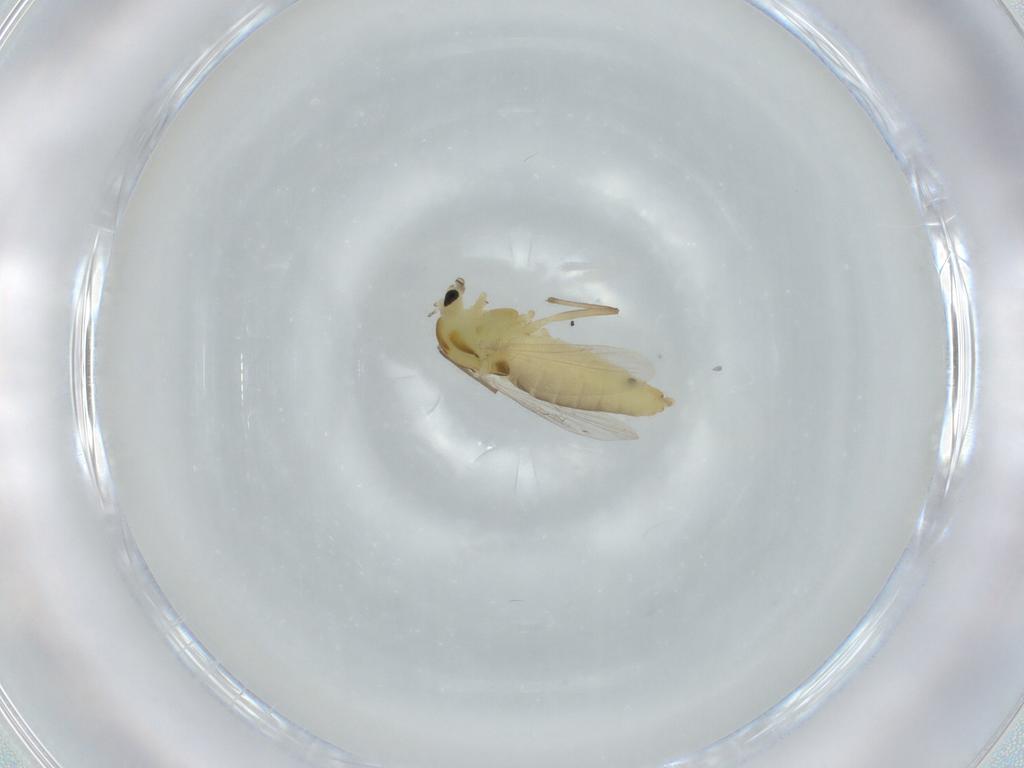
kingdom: Animalia
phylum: Arthropoda
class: Insecta
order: Diptera
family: Chironomidae
